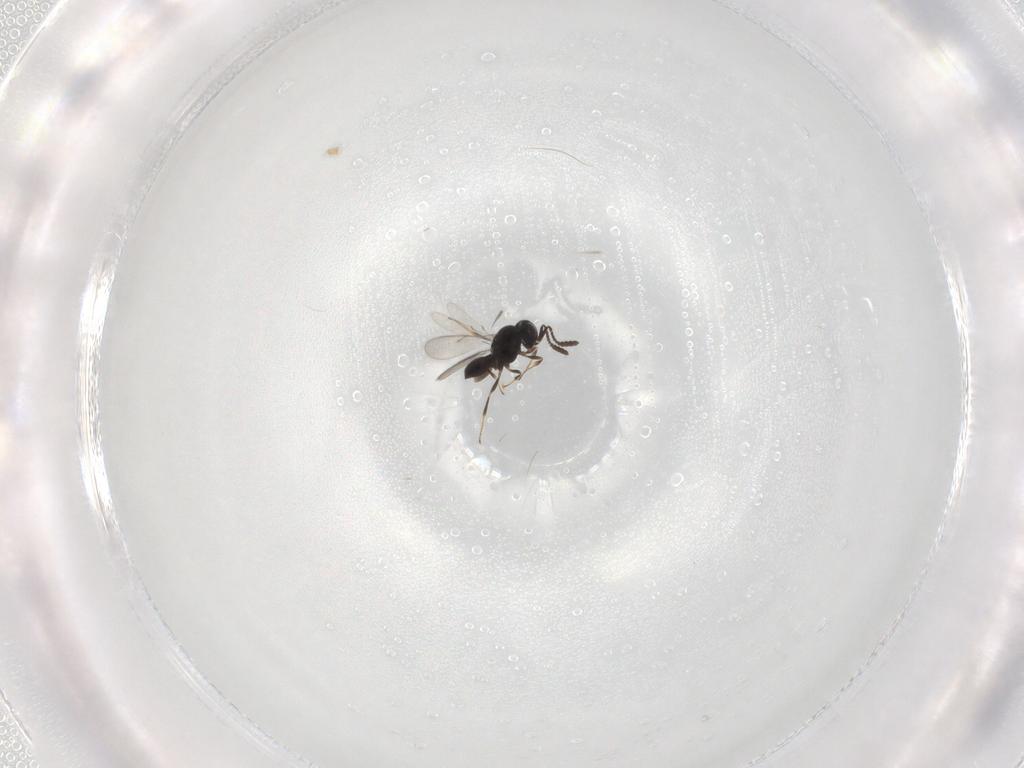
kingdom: Animalia
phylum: Arthropoda
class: Insecta
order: Hymenoptera
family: Scelionidae
